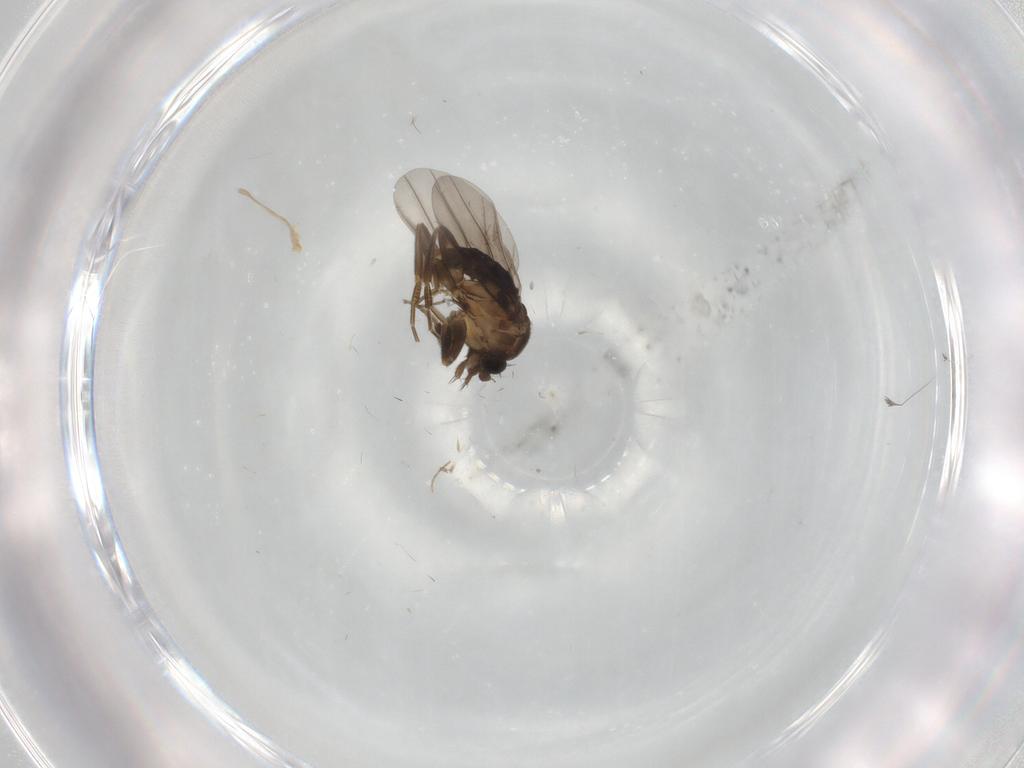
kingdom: Animalia
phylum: Arthropoda
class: Insecta
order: Diptera
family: Chironomidae
